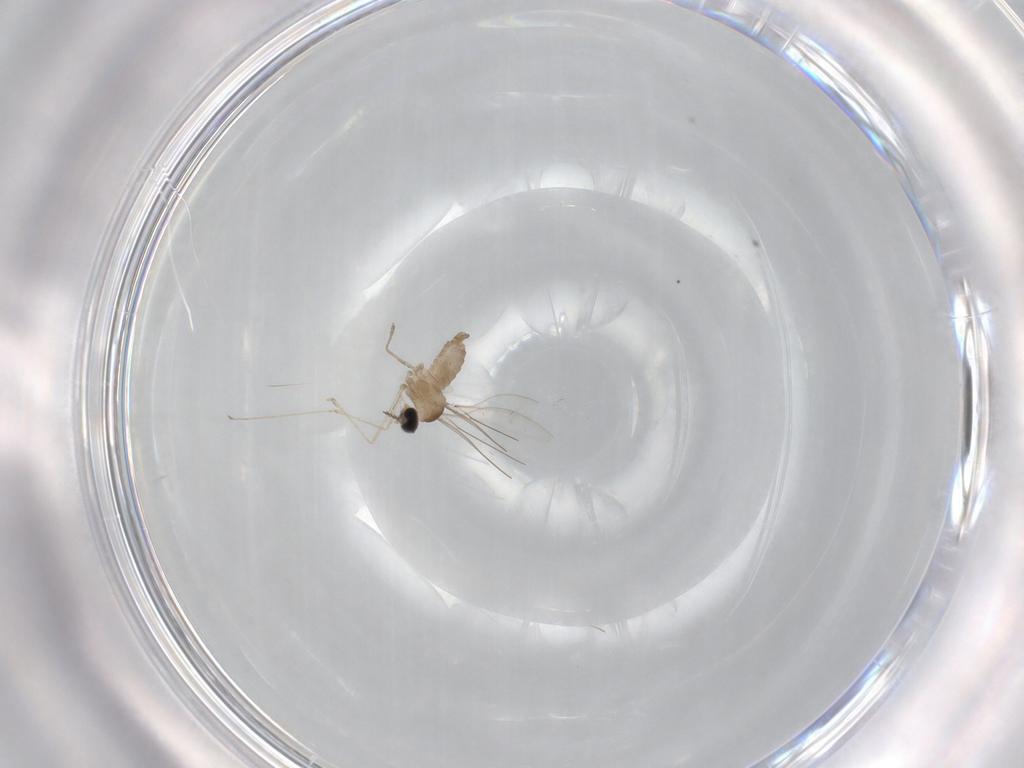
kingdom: Animalia
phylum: Arthropoda
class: Insecta
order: Diptera
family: Cecidomyiidae
